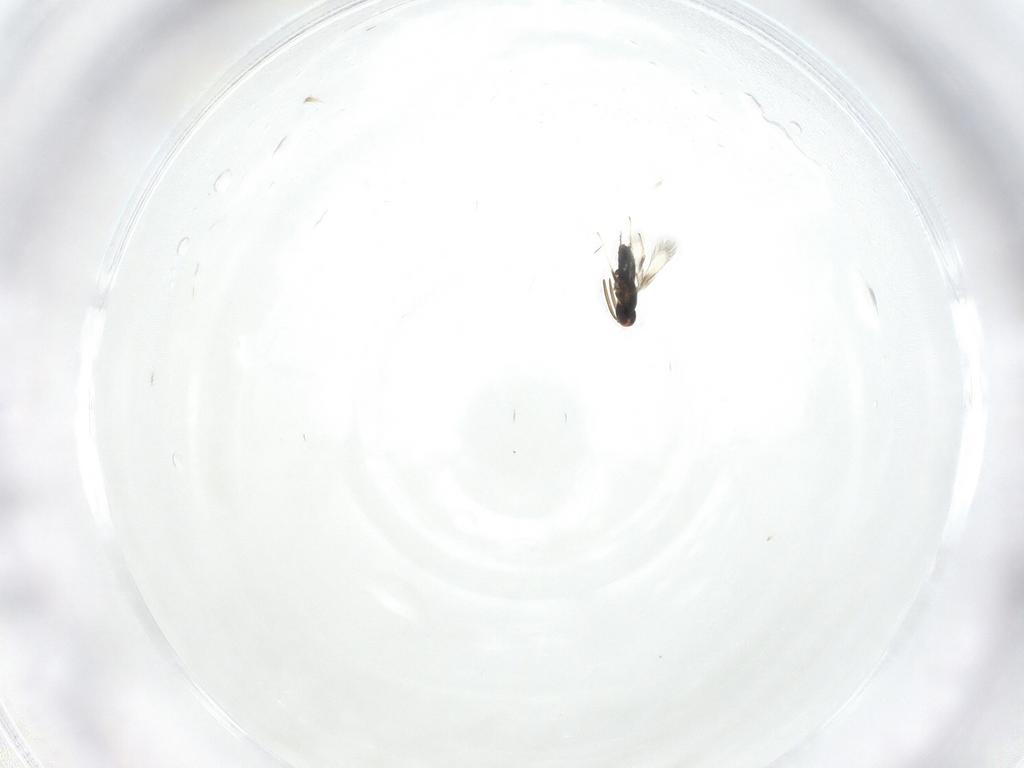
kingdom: Animalia
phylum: Arthropoda
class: Insecta
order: Hymenoptera
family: Signiphoridae
